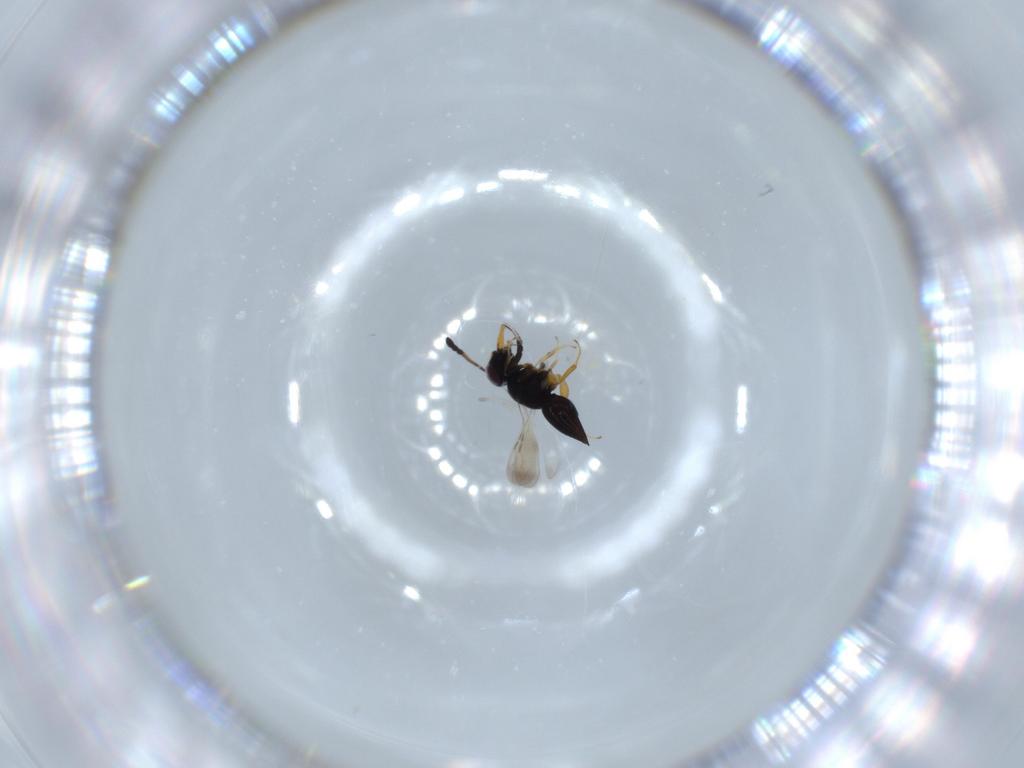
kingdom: Animalia
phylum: Arthropoda
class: Insecta
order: Hymenoptera
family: Ceraphronidae
